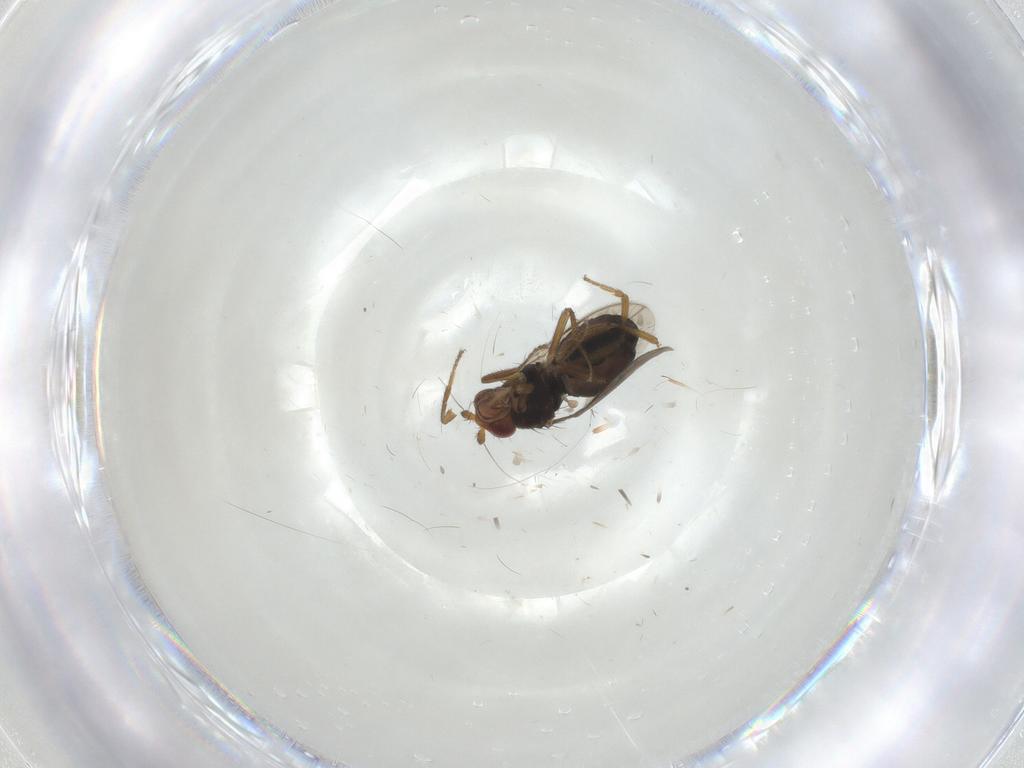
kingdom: Animalia
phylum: Arthropoda
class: Insecta
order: Diptera
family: Sphaeroceridae
